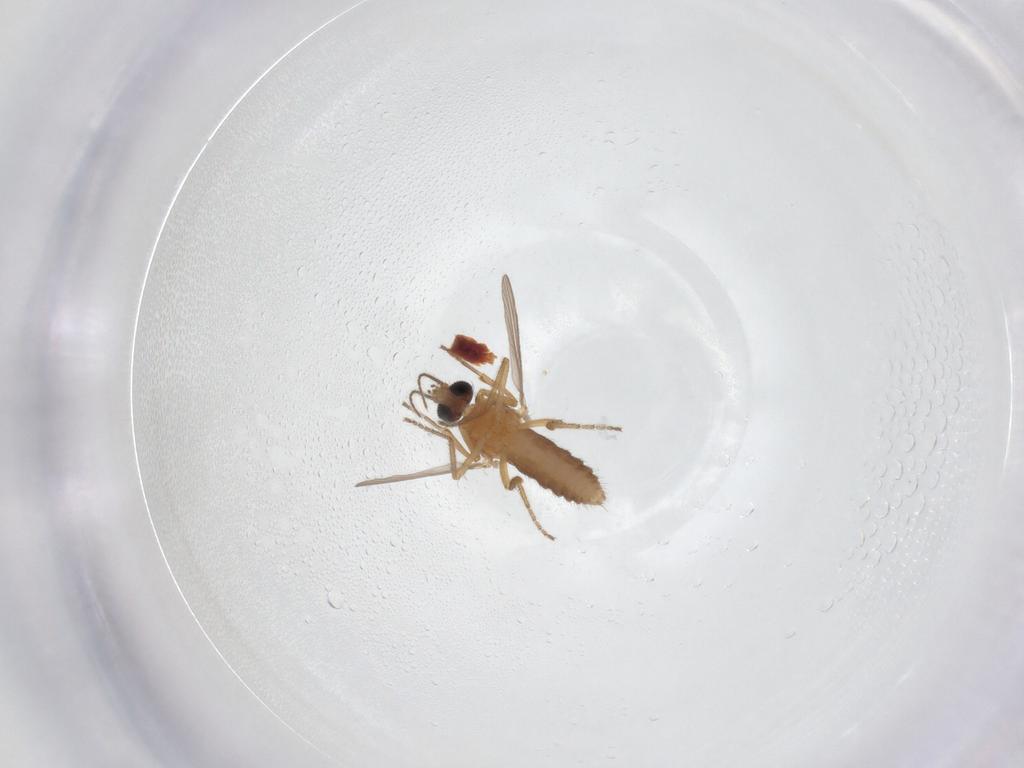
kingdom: Animalia
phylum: Arthropoda
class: Insecta
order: Diptera
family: Ceratopogonidae
